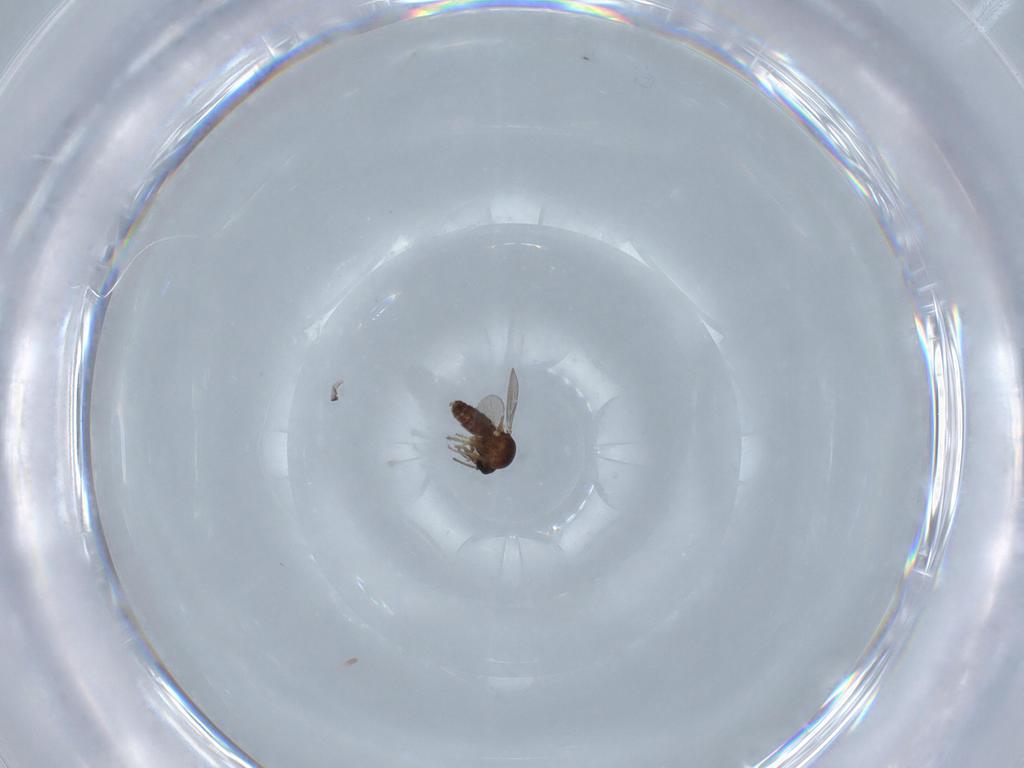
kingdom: Animalia
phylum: Arthropoda
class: Insecta
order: Diptera
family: Ceratopogonidae
